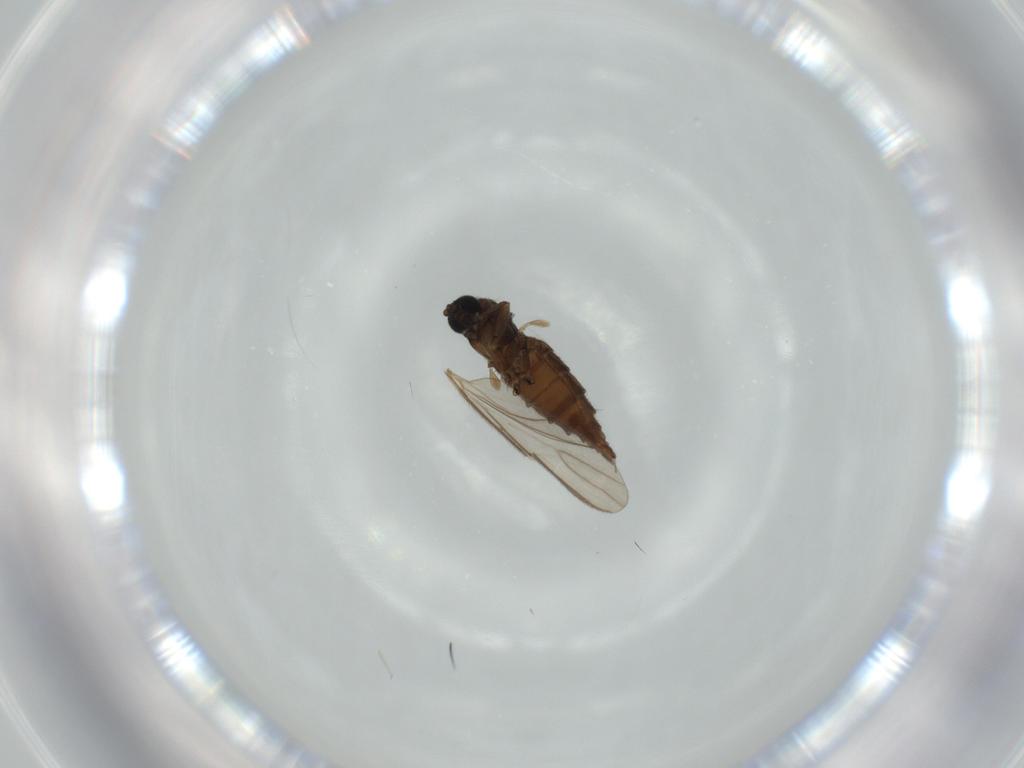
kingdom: Animalia
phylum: Arthropoda
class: Insecta
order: Diptera
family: Sciaridae
